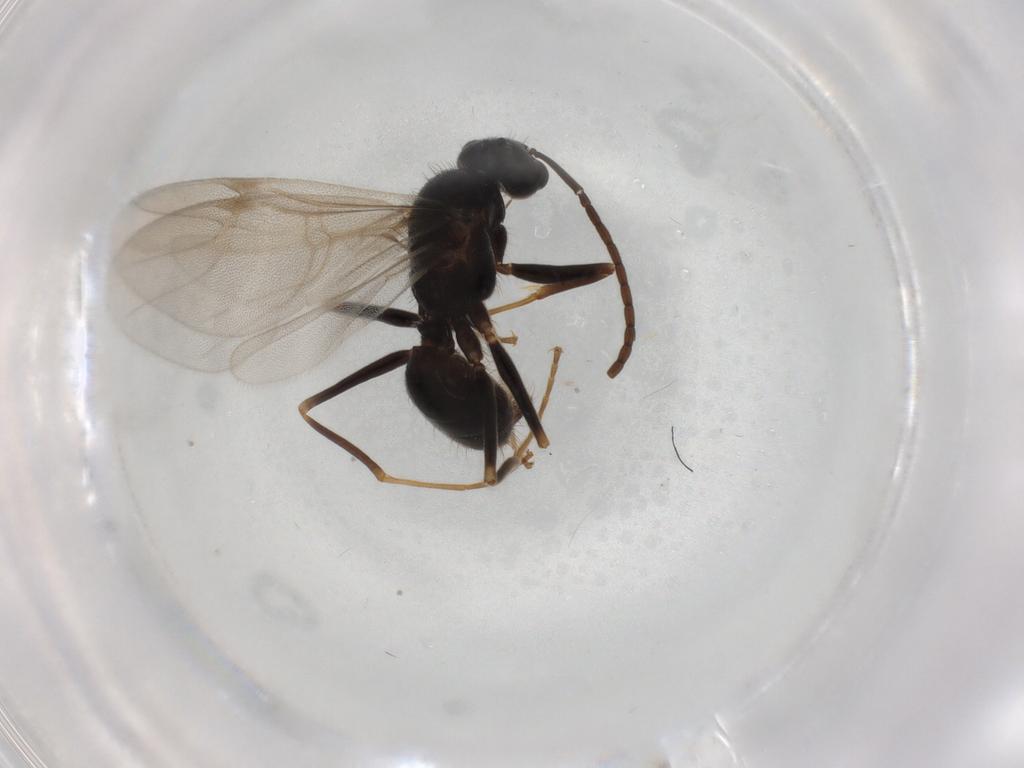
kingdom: Animalia
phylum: Arthropoda
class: Insecta
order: Hymenoptera
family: Formicidae
